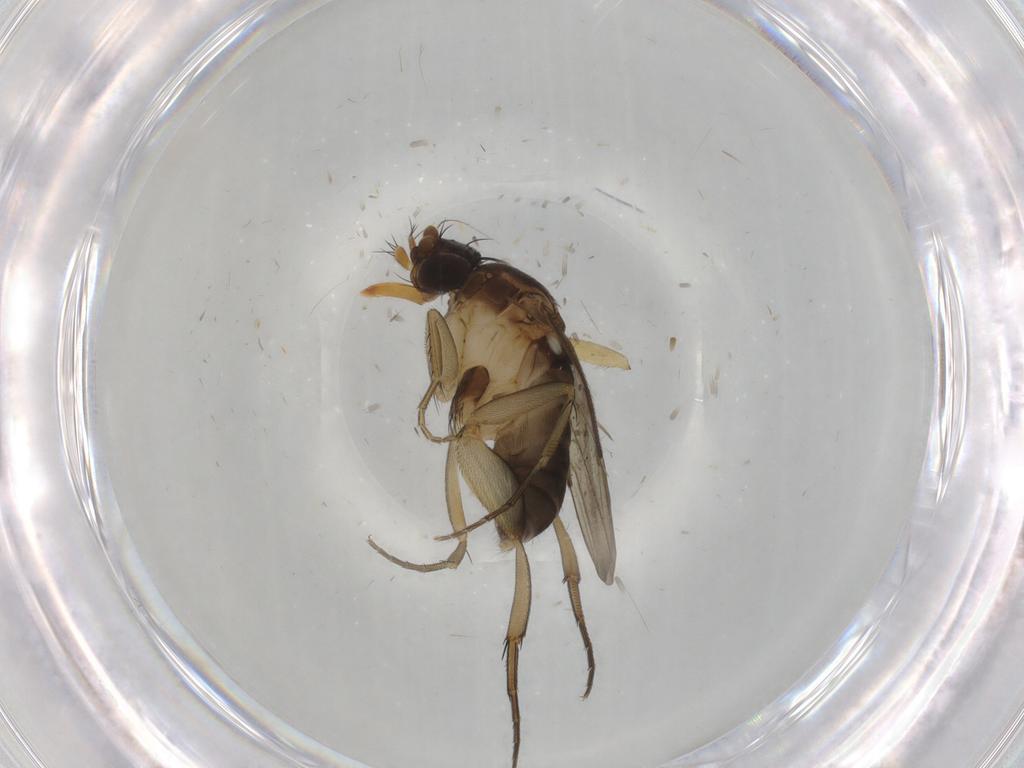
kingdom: Animalia
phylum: Arthropoda
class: Insecta
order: Diptera
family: Phoridae
